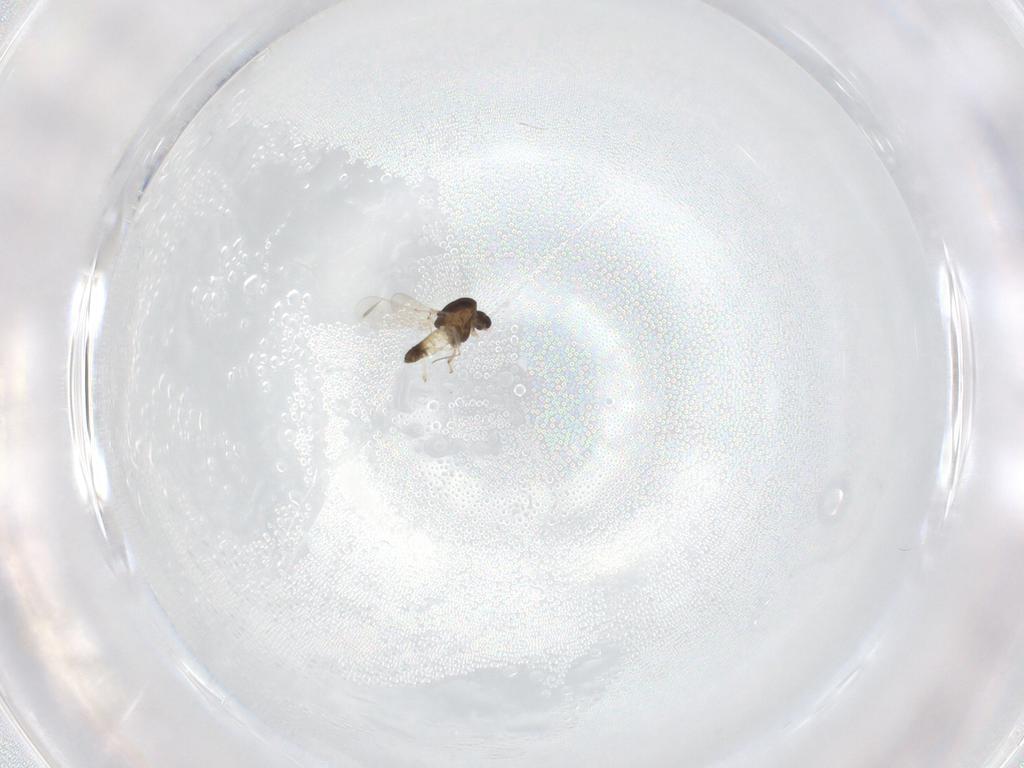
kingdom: Animalia
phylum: Arthropoda
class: Insecta
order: Diptera
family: Chironomidae
